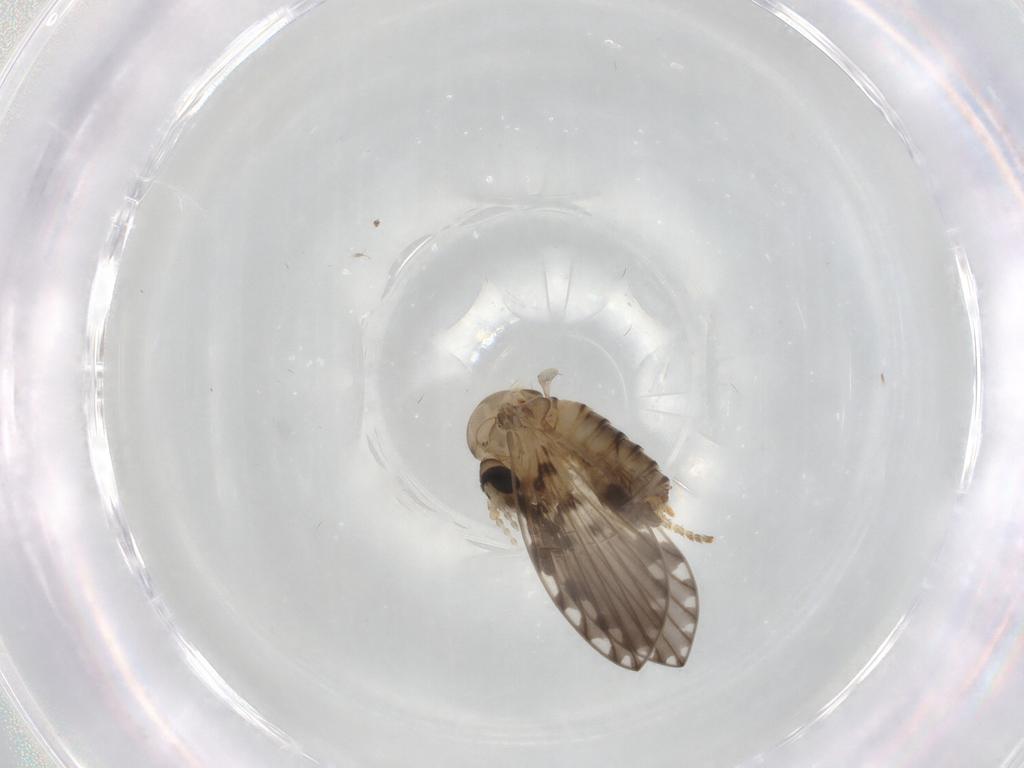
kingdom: Animalia
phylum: Arthropoda
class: Insecta
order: Diptera
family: Psychodidae
